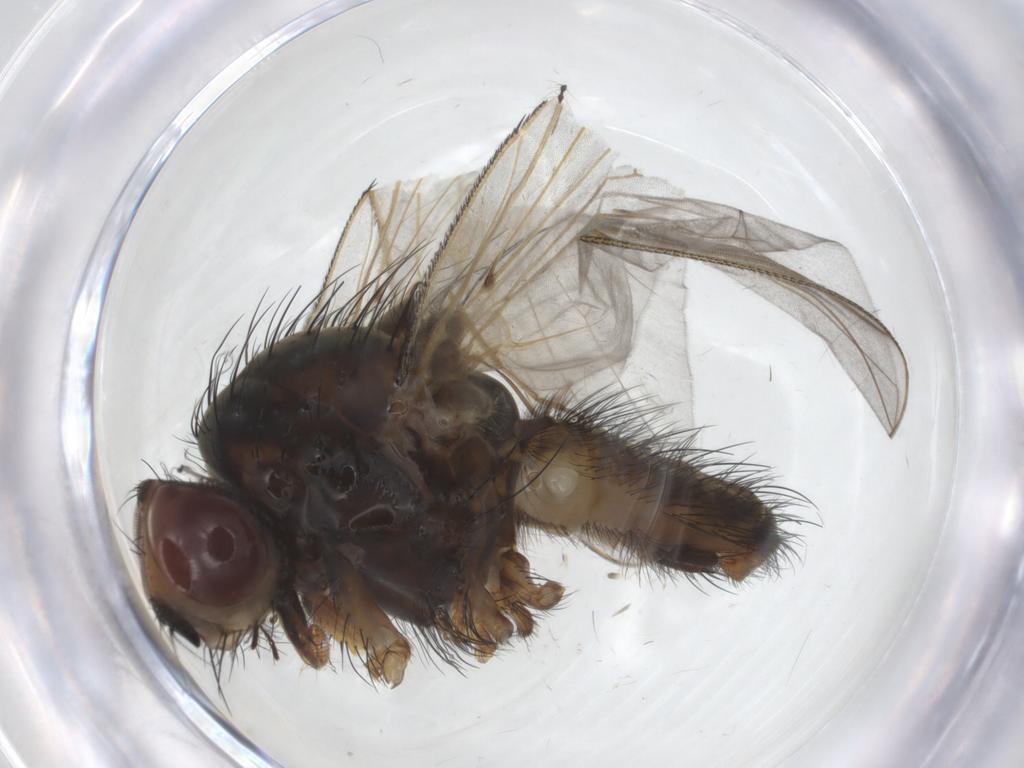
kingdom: Animalia
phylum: Arthropoda
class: Insecta
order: Diptera
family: Anthomyiidae
